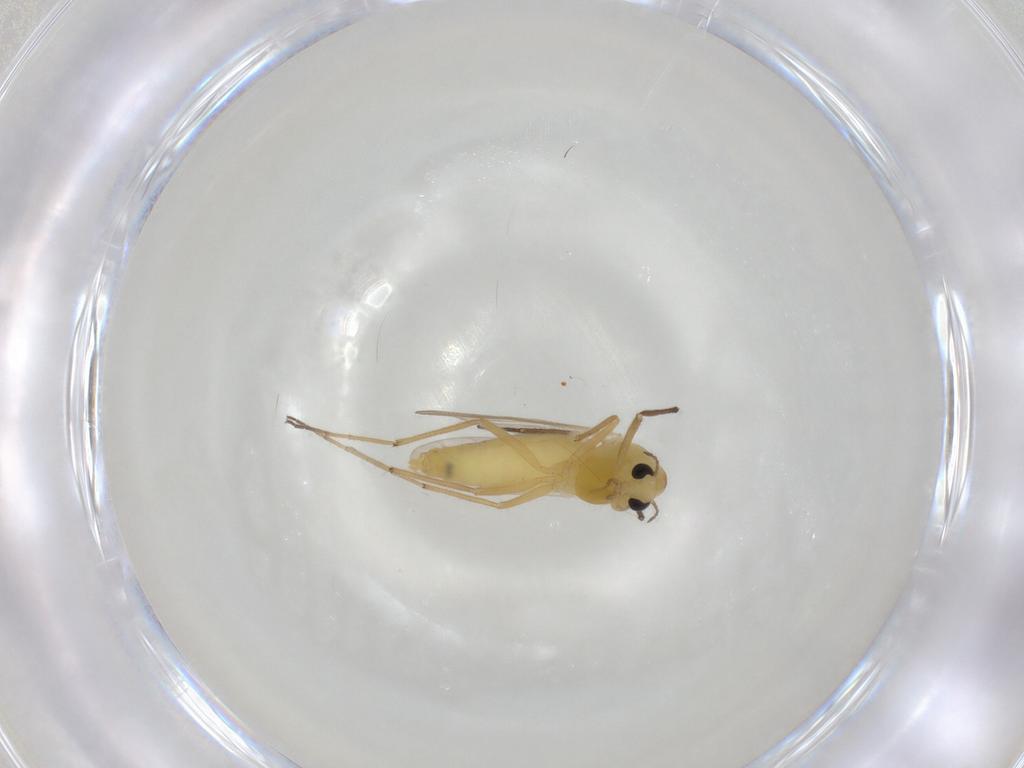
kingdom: Animalia
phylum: Arthropoda
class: Insecta
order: Diptera
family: Chironomidae
